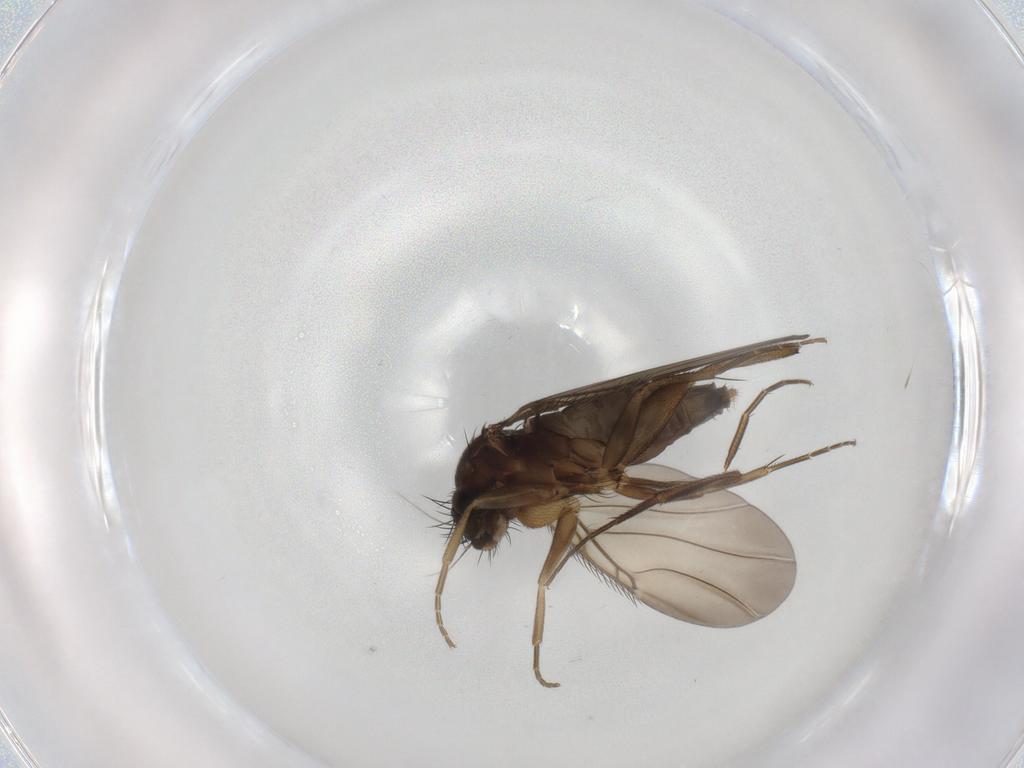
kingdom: Animalia
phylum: Arthropoda
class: Insecta
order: Diptera
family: Phoridae
